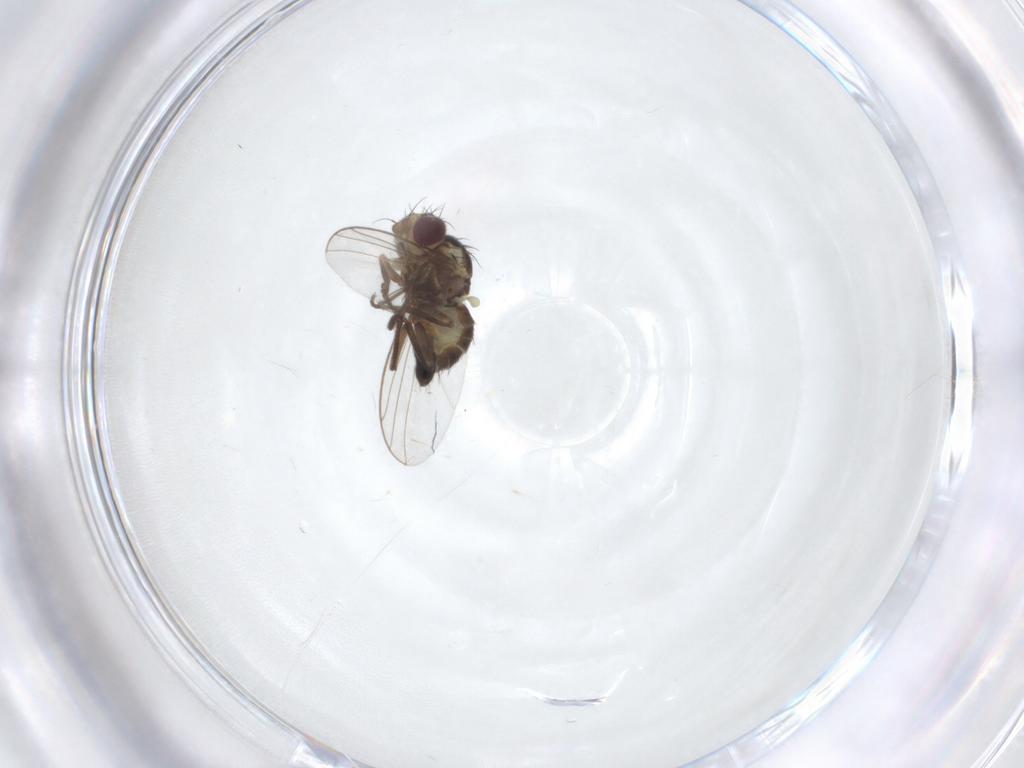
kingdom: Animalia
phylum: Arthropoda
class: Insecta
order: Diptera
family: Agromyzidae
